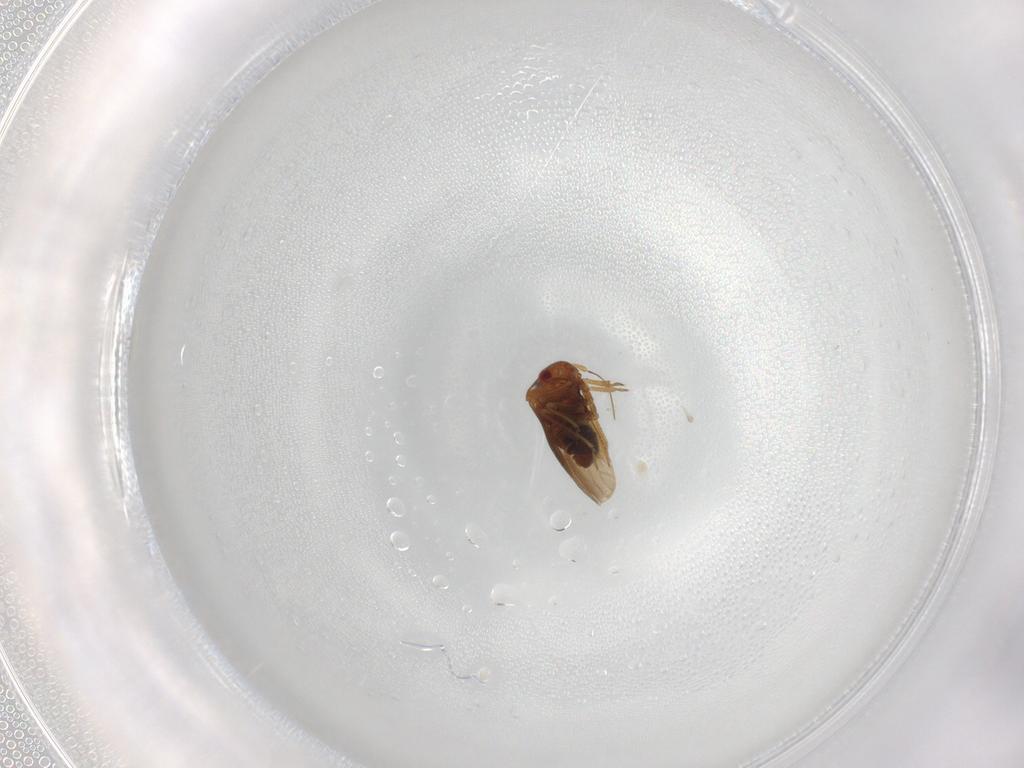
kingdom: Animalia
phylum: Arthropoda
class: Insecta
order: Hemiptera
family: Schizopteridae
